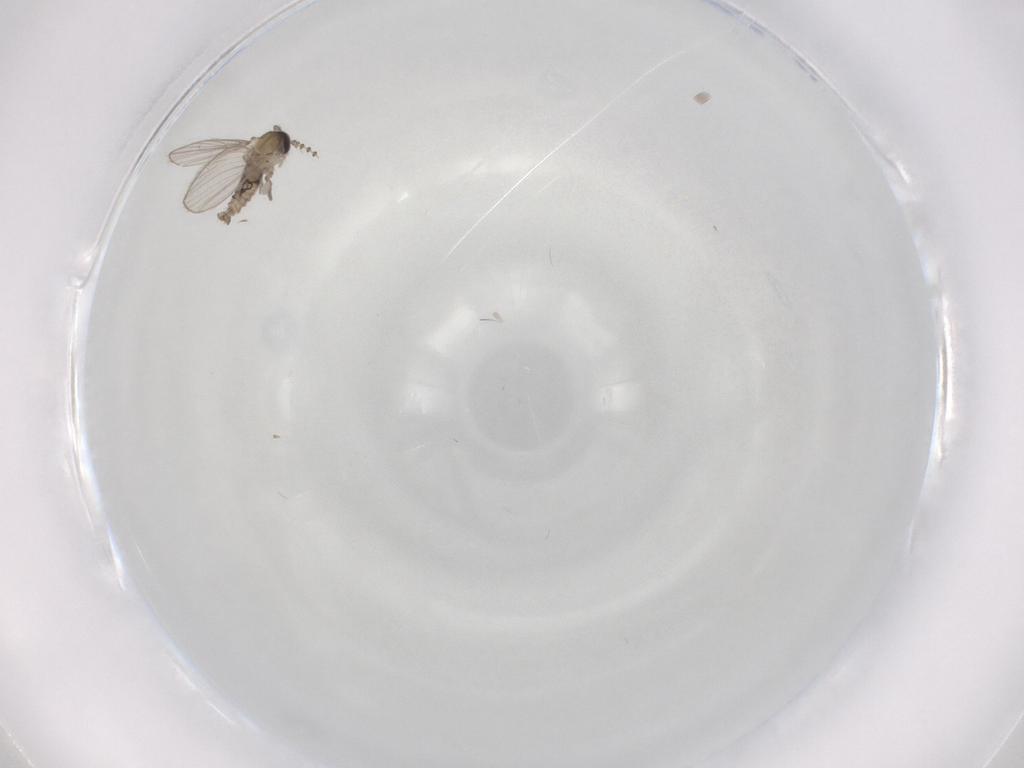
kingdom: Animalia
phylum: Arthropoda
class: Insecta
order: Diptera
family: Psychodidae
